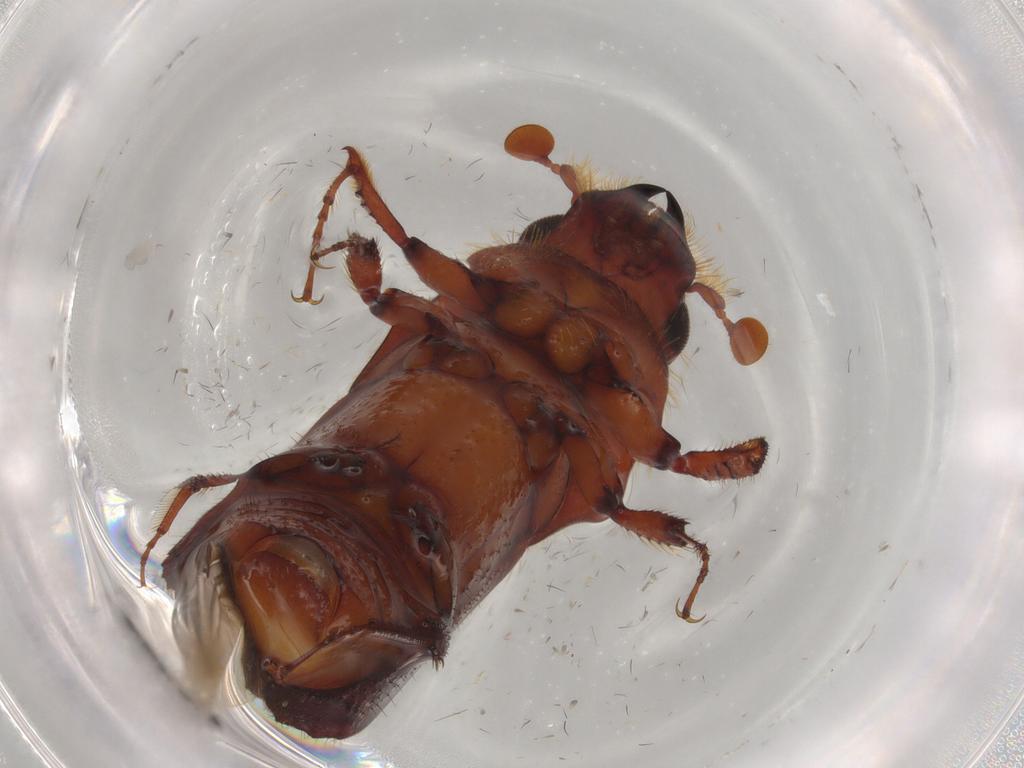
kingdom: Animalia
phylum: Arthropoda
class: Insecta
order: Coleoptera
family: Curculionidae
